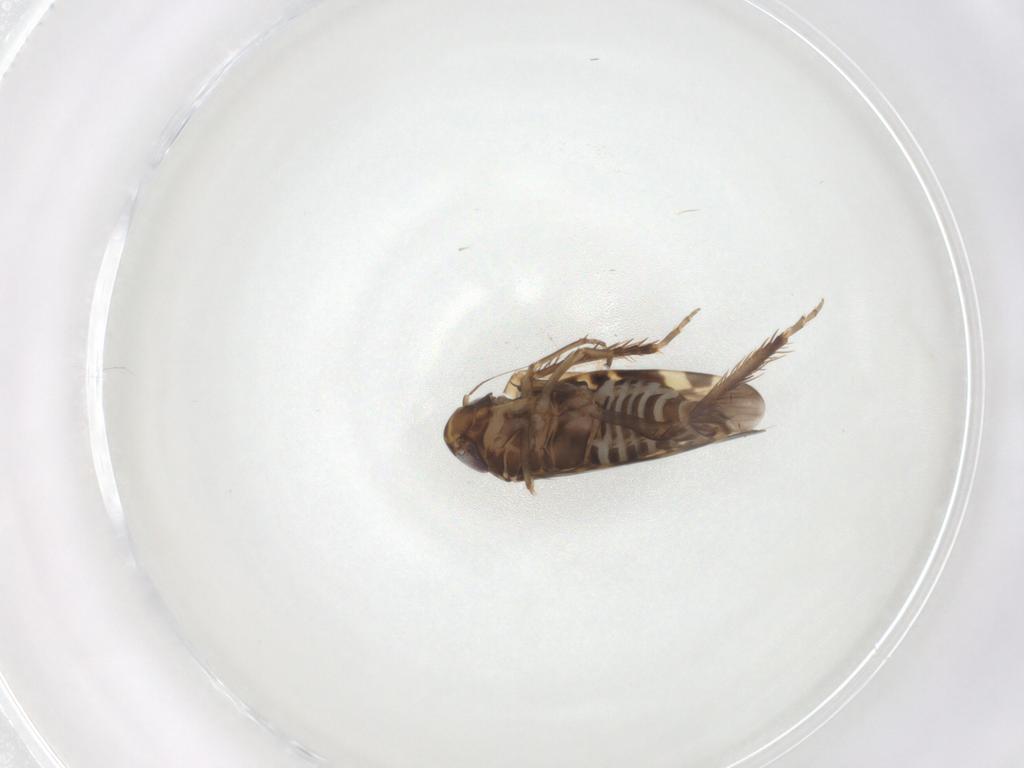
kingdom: Animalia
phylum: Arthropoda
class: Insecta
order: Hemiptera
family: Cicadellidae
